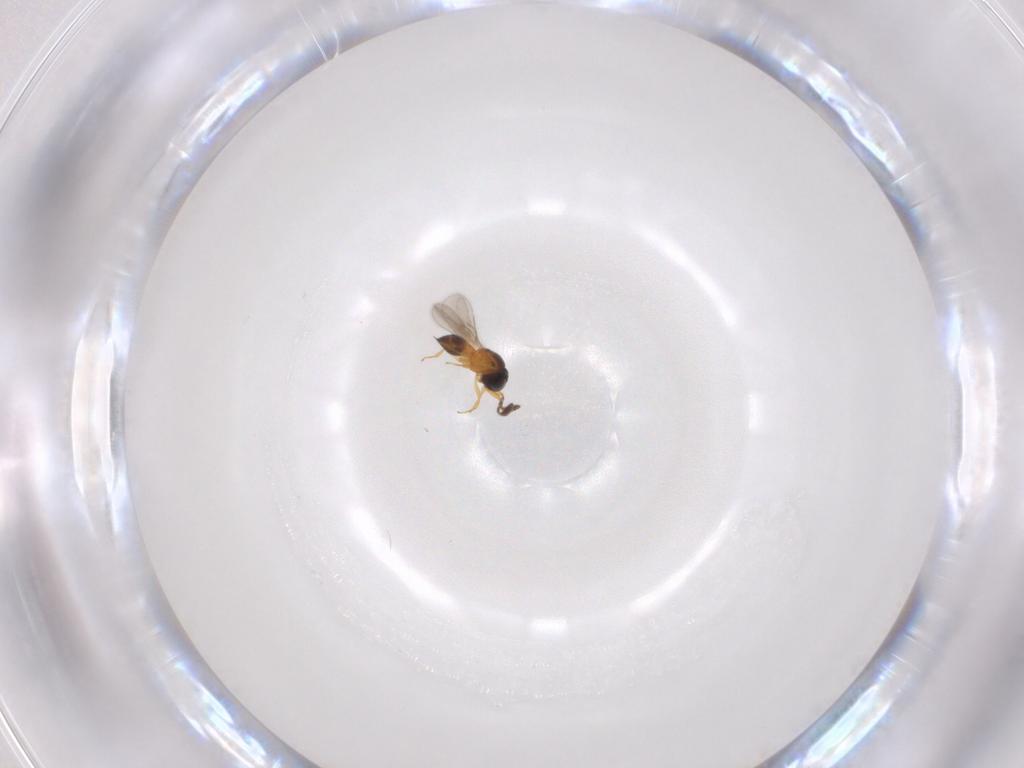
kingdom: Animalia
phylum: Arthropoda
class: Insecta
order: Hymenoptera
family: Scelionidae
